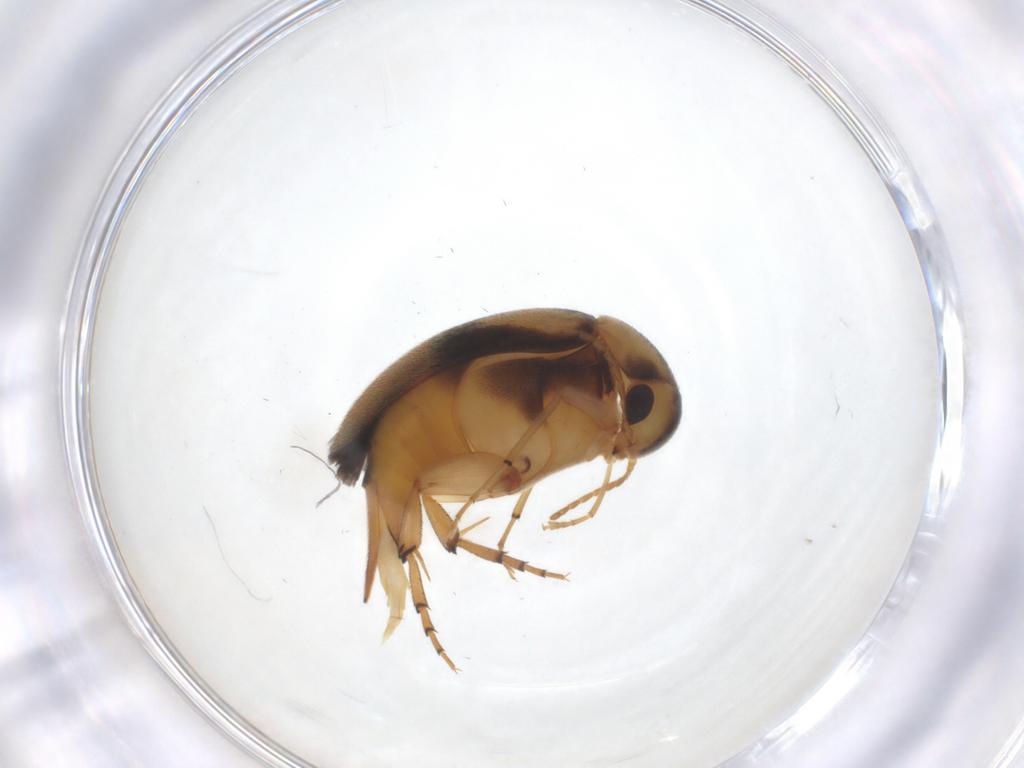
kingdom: Animalia
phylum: Arthropoda
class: Insecta
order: Coleoptera
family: Mordellidae
